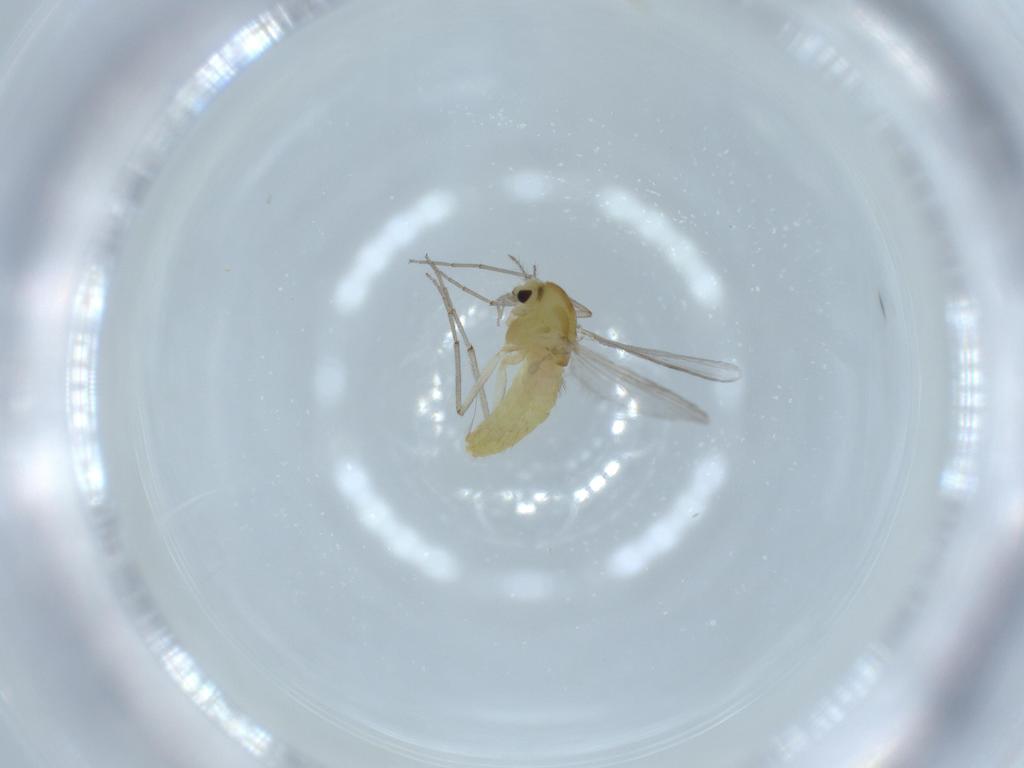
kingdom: Animalia
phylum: Arthropoda
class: Insecta
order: Diptera
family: Chironomidae
